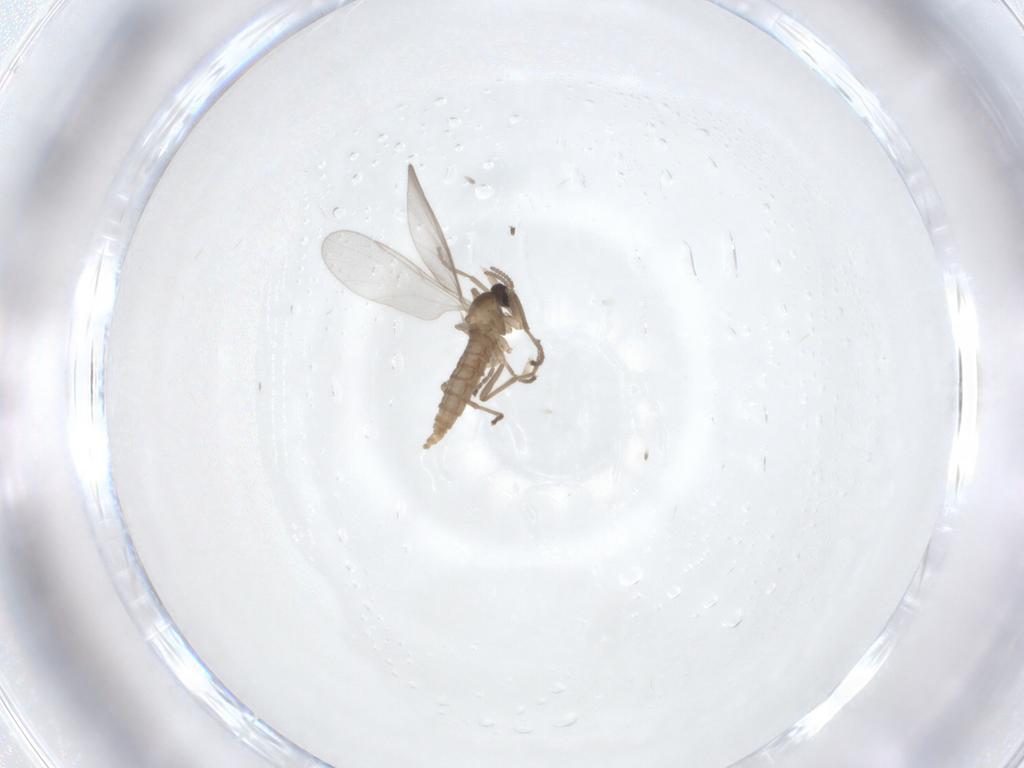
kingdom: Animalia
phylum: Arthropoda
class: Insecta
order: Diptera
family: Cecidomyiidae
